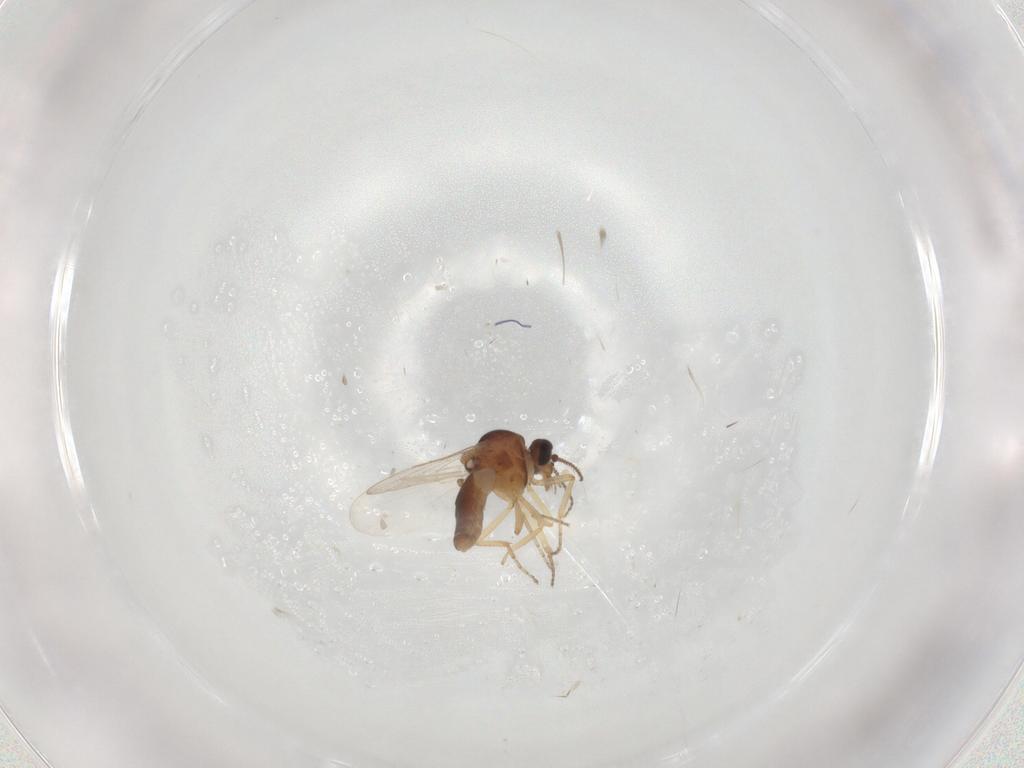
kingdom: Animalia
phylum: Arthropoda
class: Insecta
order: Diptera
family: Ceratopogonidae
